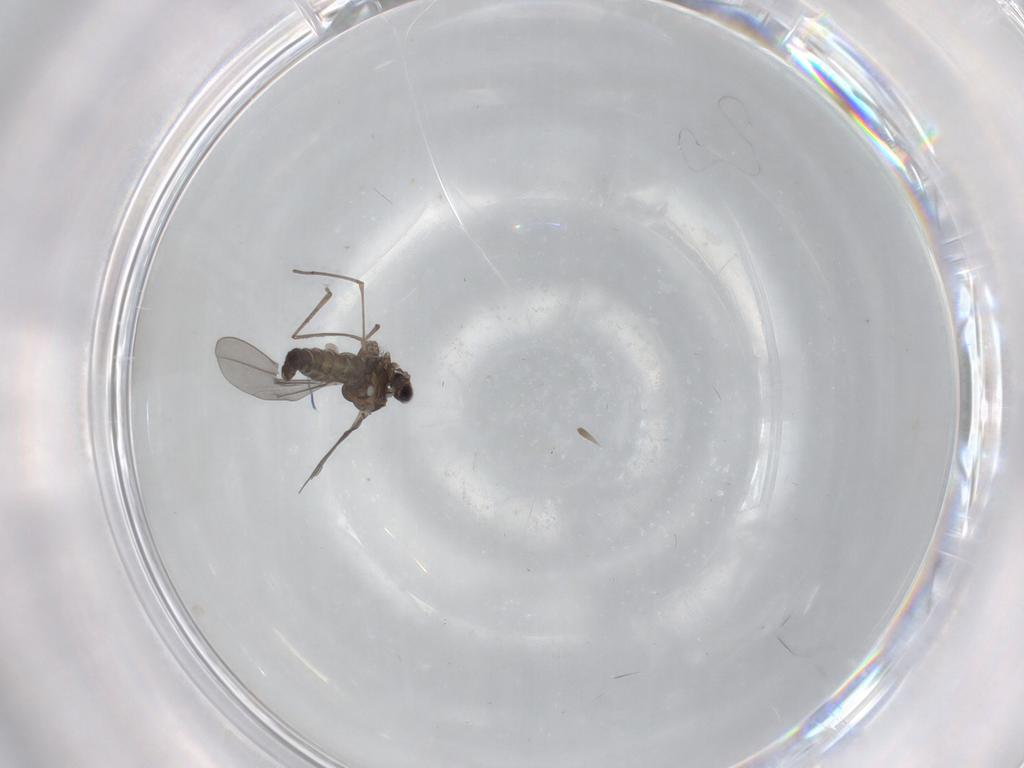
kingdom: Animalia
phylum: Arthropoda
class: Insecta
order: Diptera
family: Cecidomyiidae
